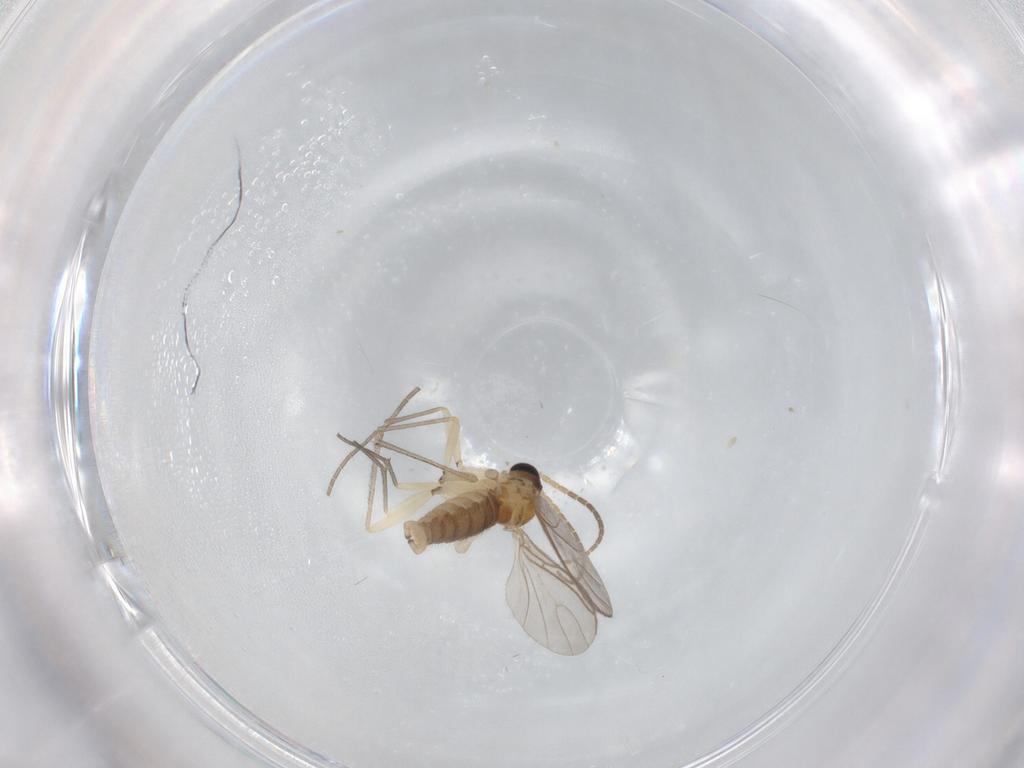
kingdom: Animalia
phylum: Arthropoda
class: Insecta
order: Diptera
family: Sciaridae
